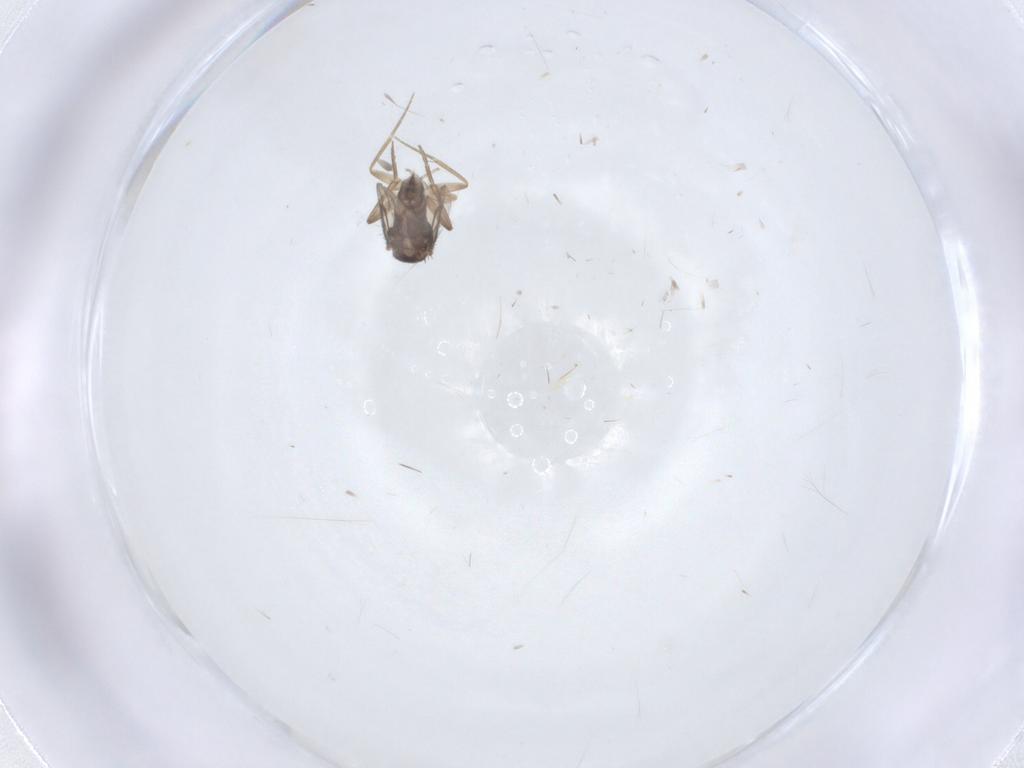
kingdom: Animalia
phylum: Arthropoda
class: Insecta
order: Diptera
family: Phoridae
